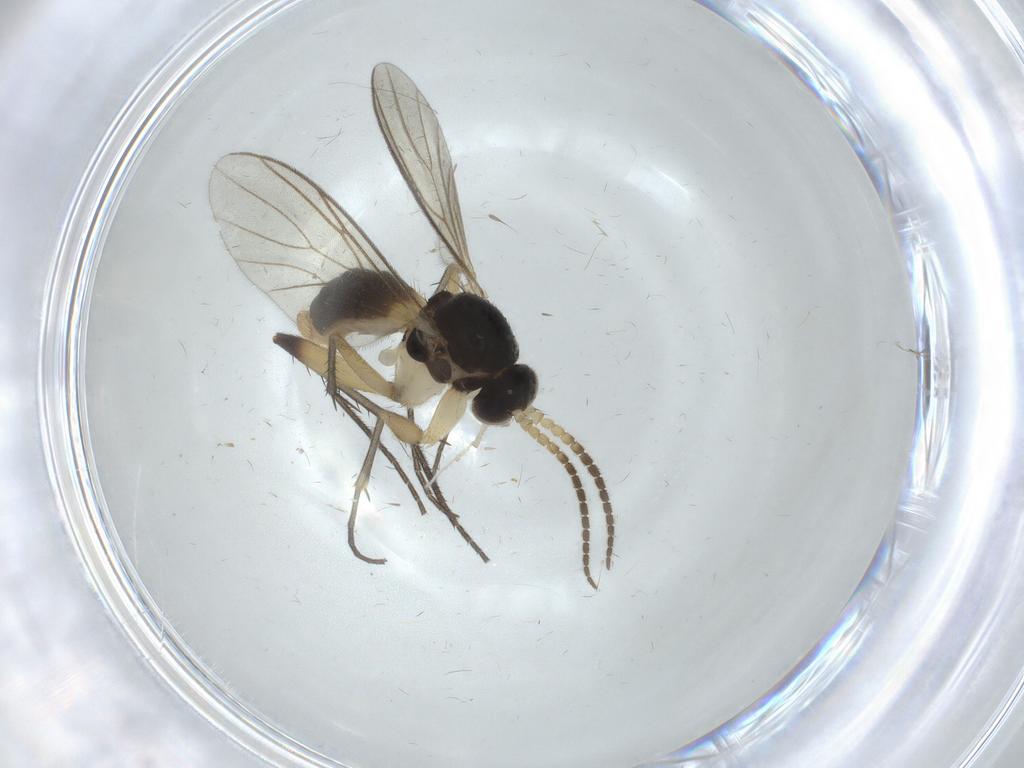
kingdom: Animalia
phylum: Arthropoda
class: Insecta
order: Diptera
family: Mycetophilidae
